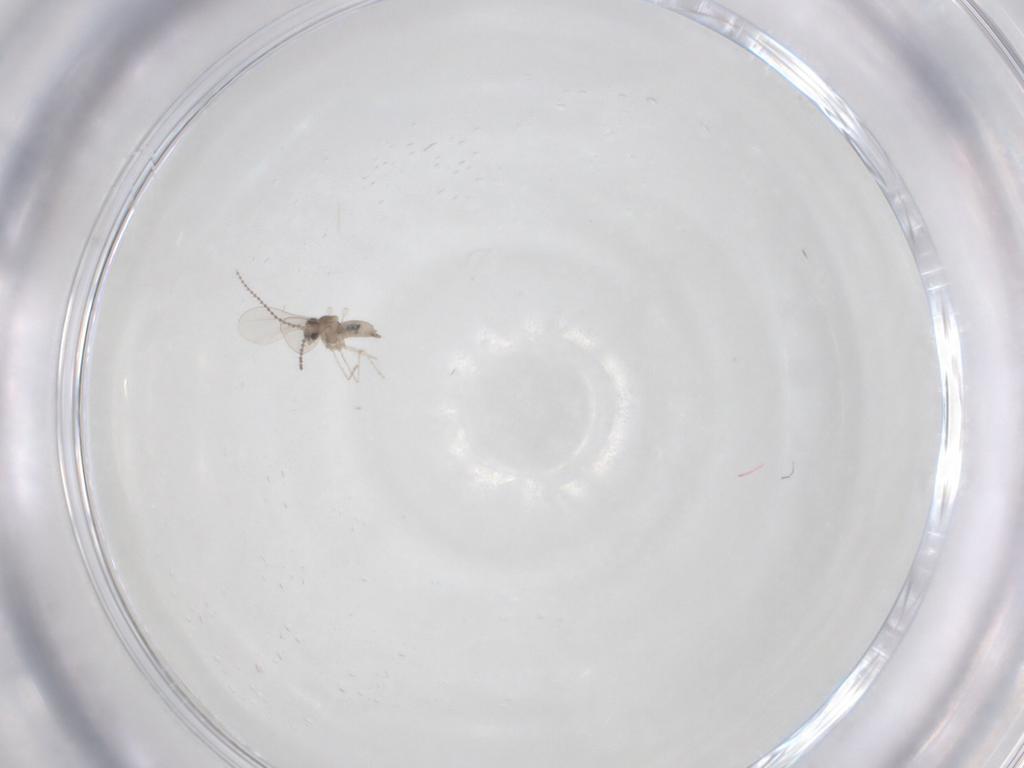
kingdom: Animalia
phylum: Arthropoda
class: Insecta
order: Diptera
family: Cecidomyiidae
